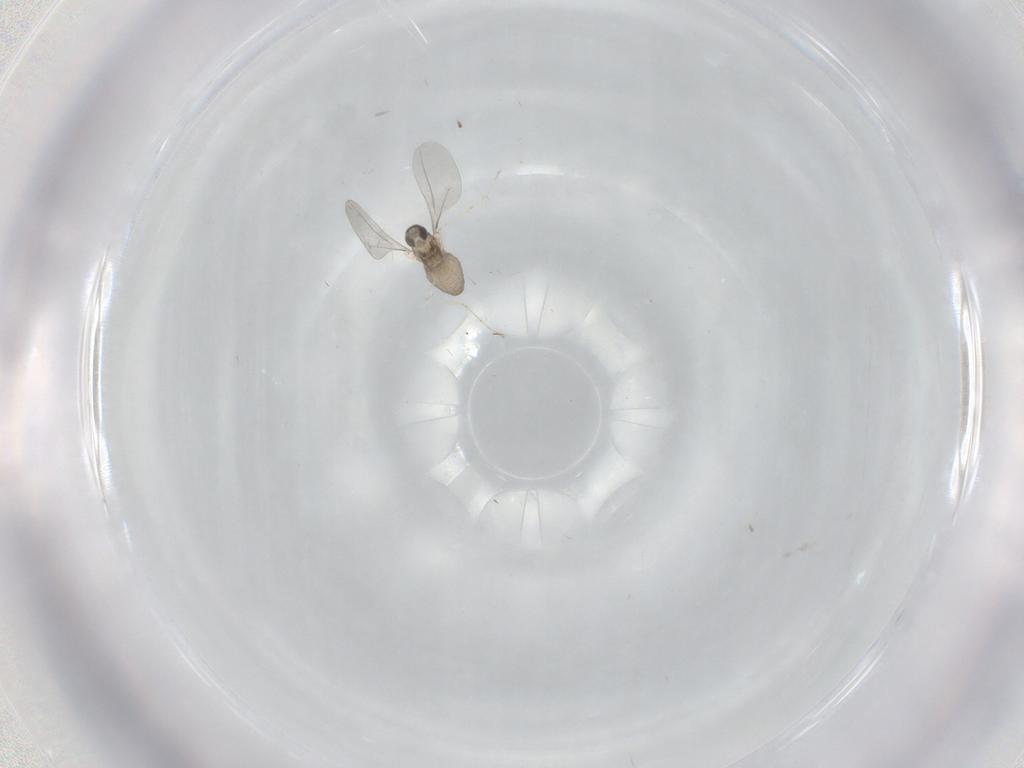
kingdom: Animalia
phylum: Arthropoda
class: Insecta
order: Diptera
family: Cecidomyiidae
